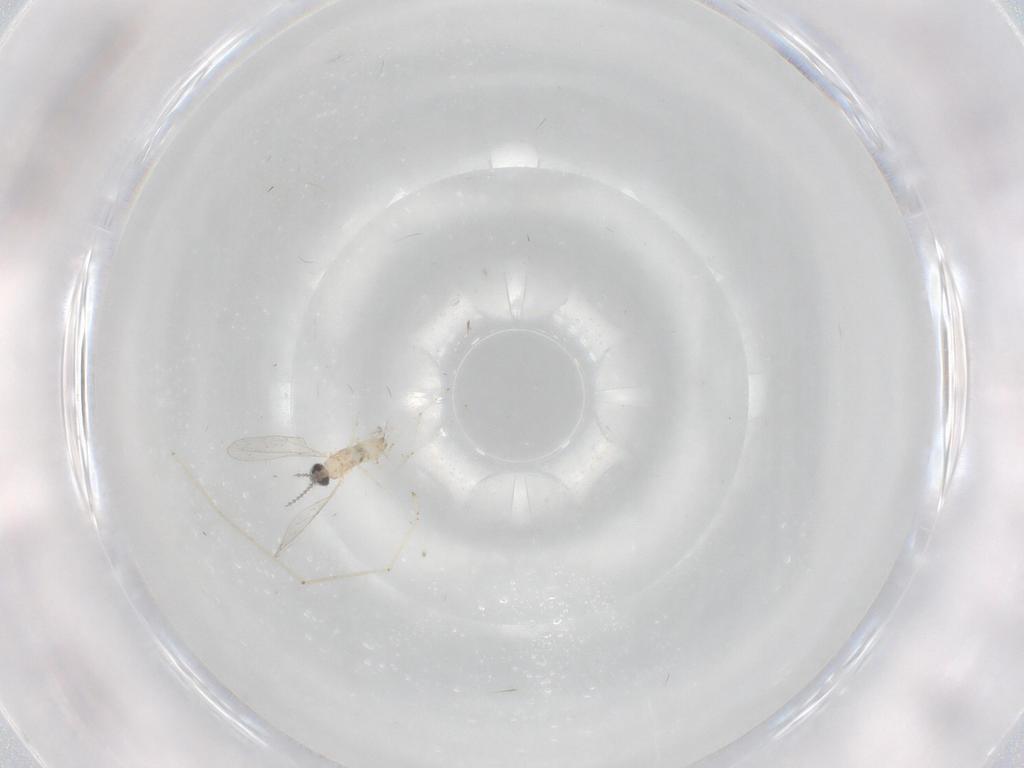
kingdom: Animalia
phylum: Arthropoda
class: Insecta
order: Diptera
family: Cecidomyiidae
